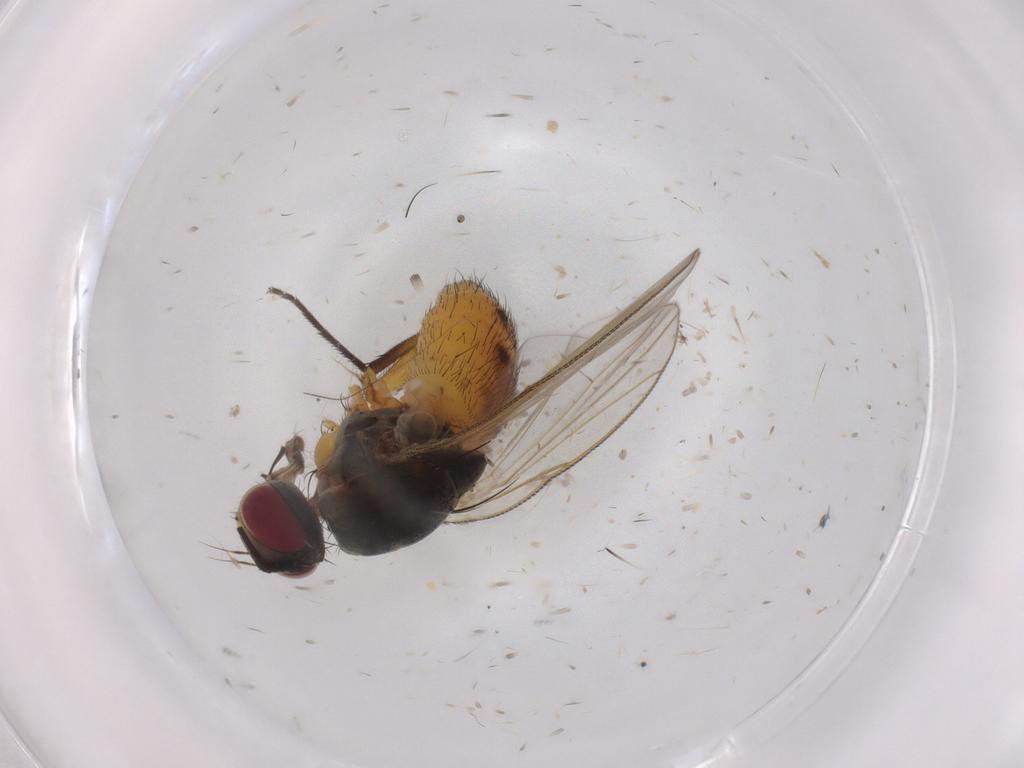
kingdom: Animalia
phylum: Arthropoda
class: Insecta
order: Diptera
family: Muscidae
